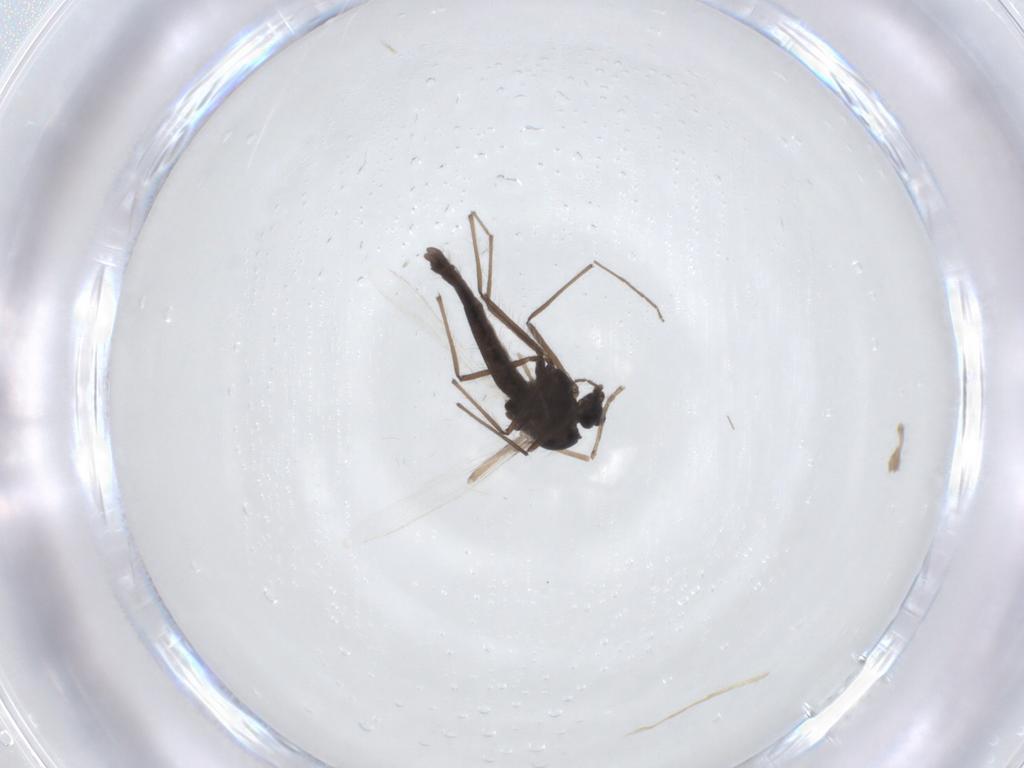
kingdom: Animalia
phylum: Arthropoda
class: Insecta
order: Diptera
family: Cecidomyiidae
